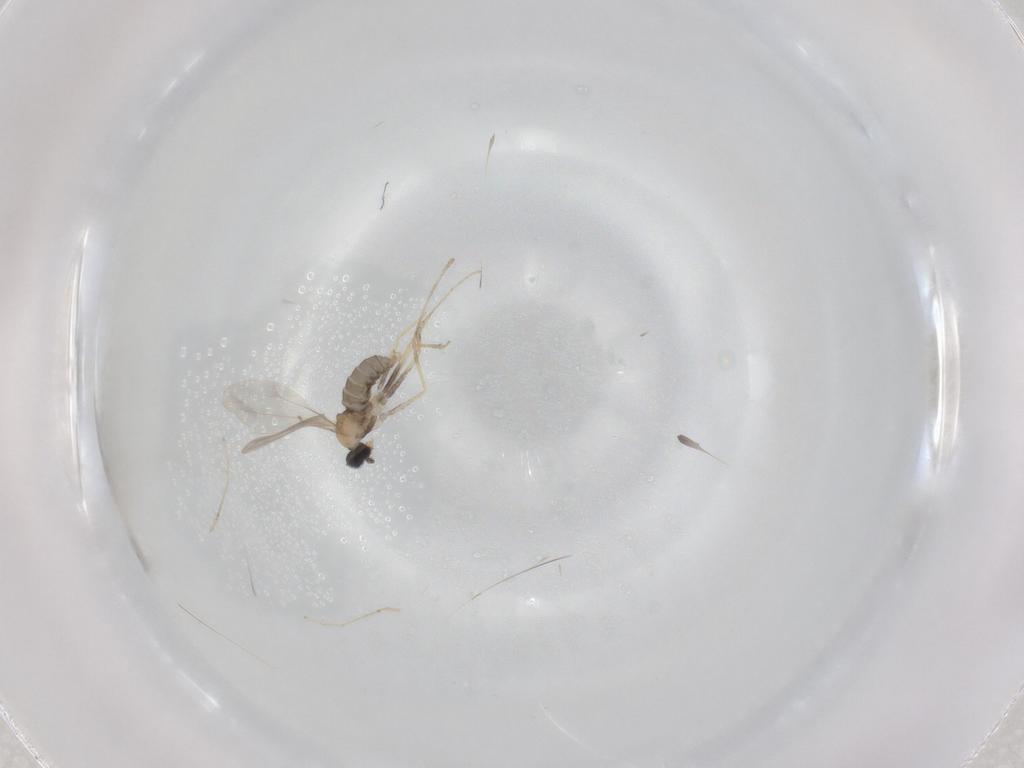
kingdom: Animalia
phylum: Arthropoda
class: Insecta
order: Diptera
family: Cecidomyiidae
